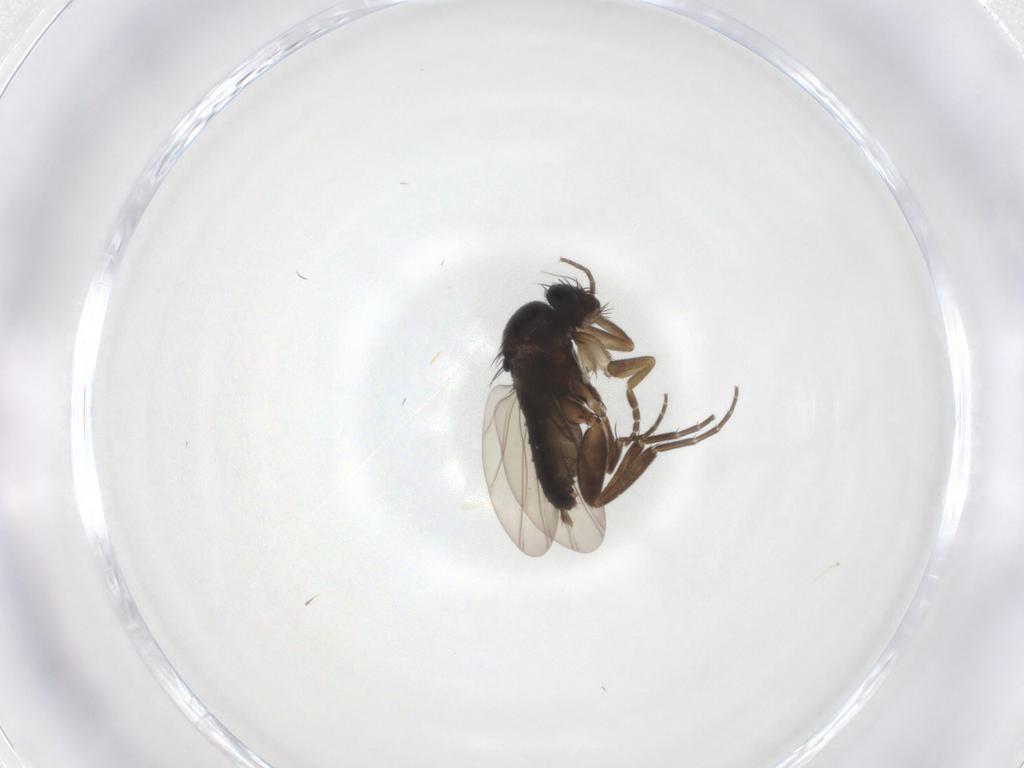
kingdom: Animalia
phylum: Arthropoda
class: Insecta
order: Diptera
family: Phoridae
